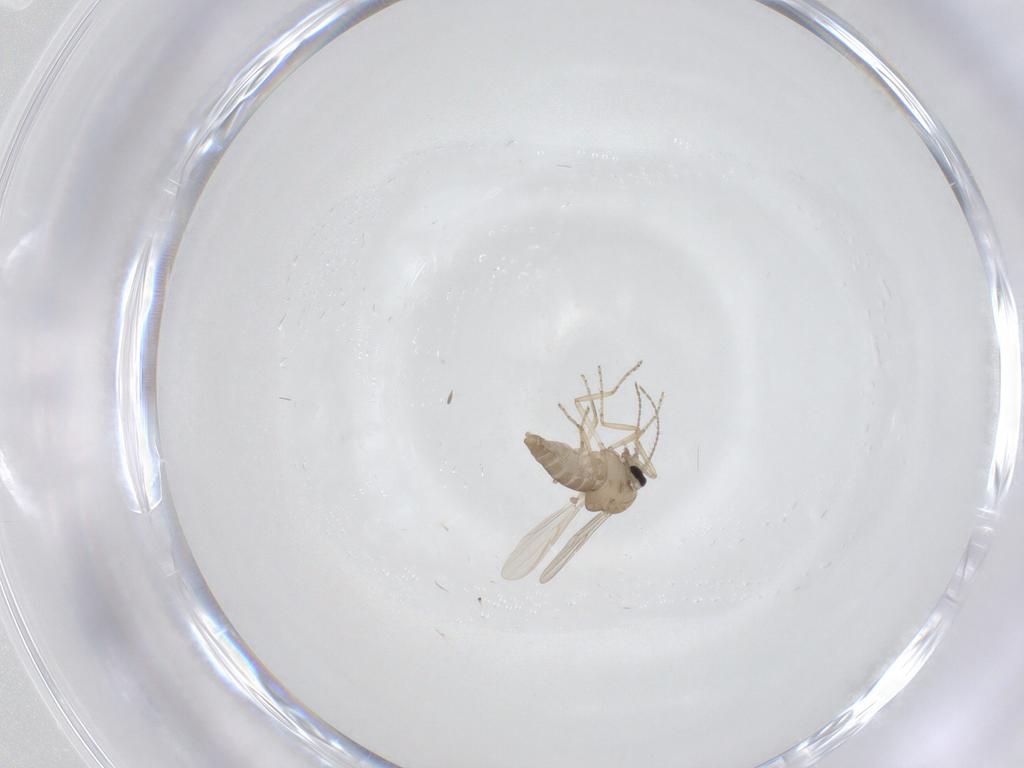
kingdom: Animalia
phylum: Arthropoda
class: Insecta
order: Diptera
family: Ceratopogonidae
